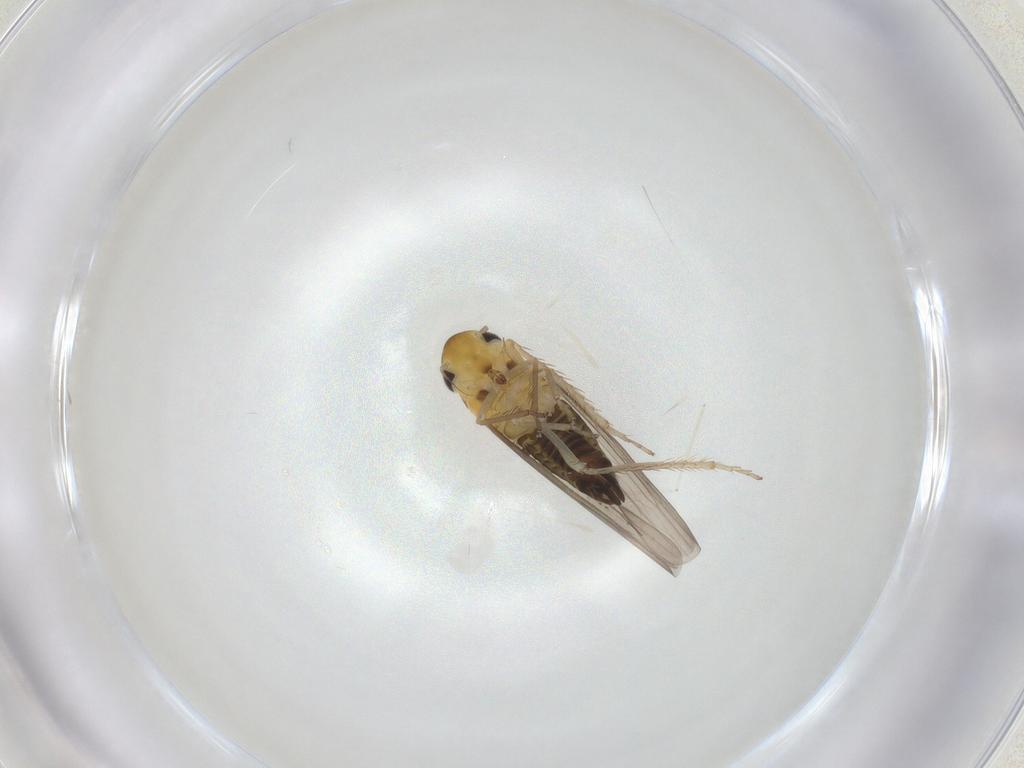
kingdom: Animalia
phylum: Arthropoda
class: Insecta
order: Hemiptera
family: Cicadellidae
